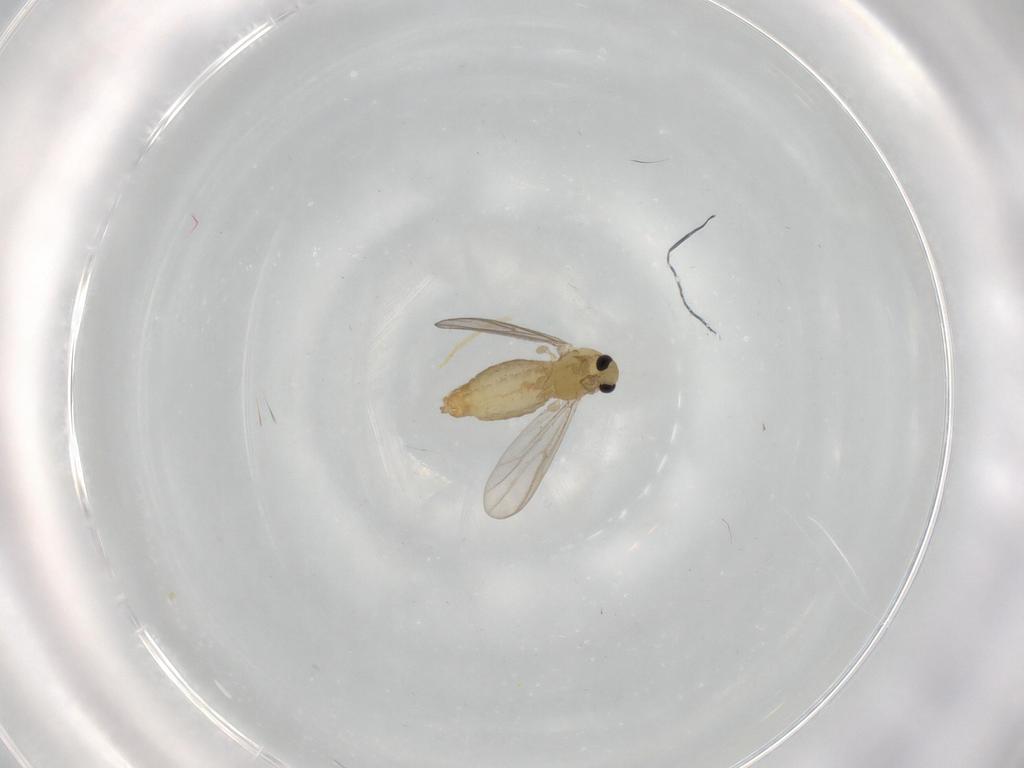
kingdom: Animalia
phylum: Arthropoda
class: Insecta
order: Diptera
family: Chironomidae
